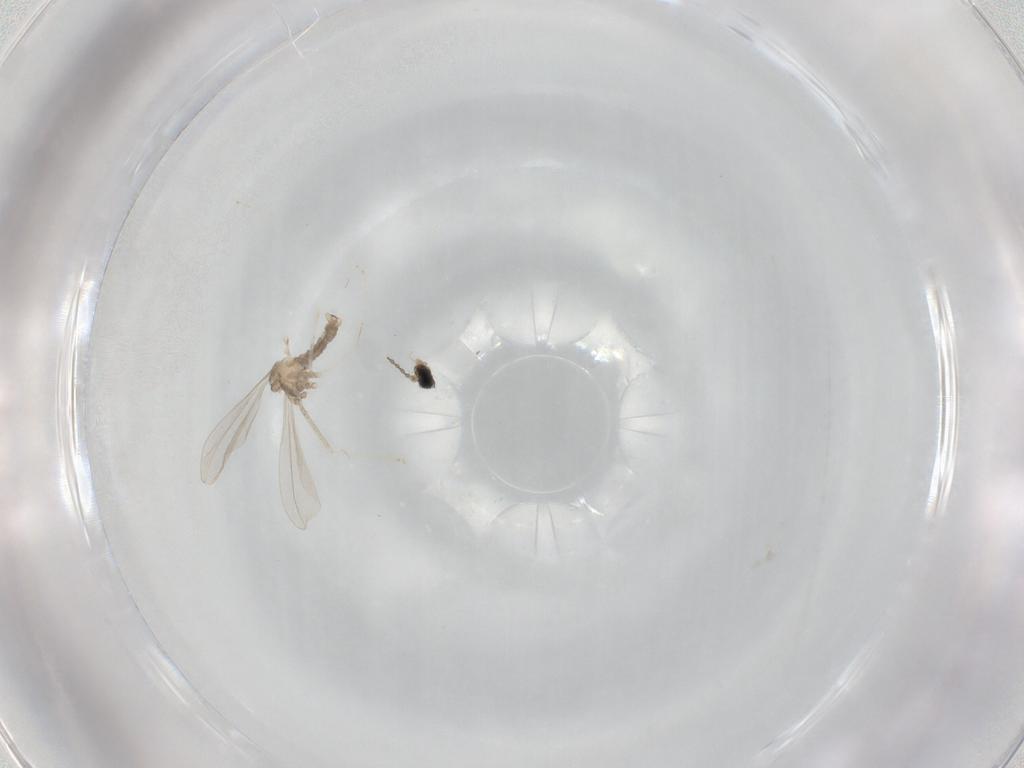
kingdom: Animalia
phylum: Arthropoda
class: Insecta
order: Diptera
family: Cecidomyiidae
